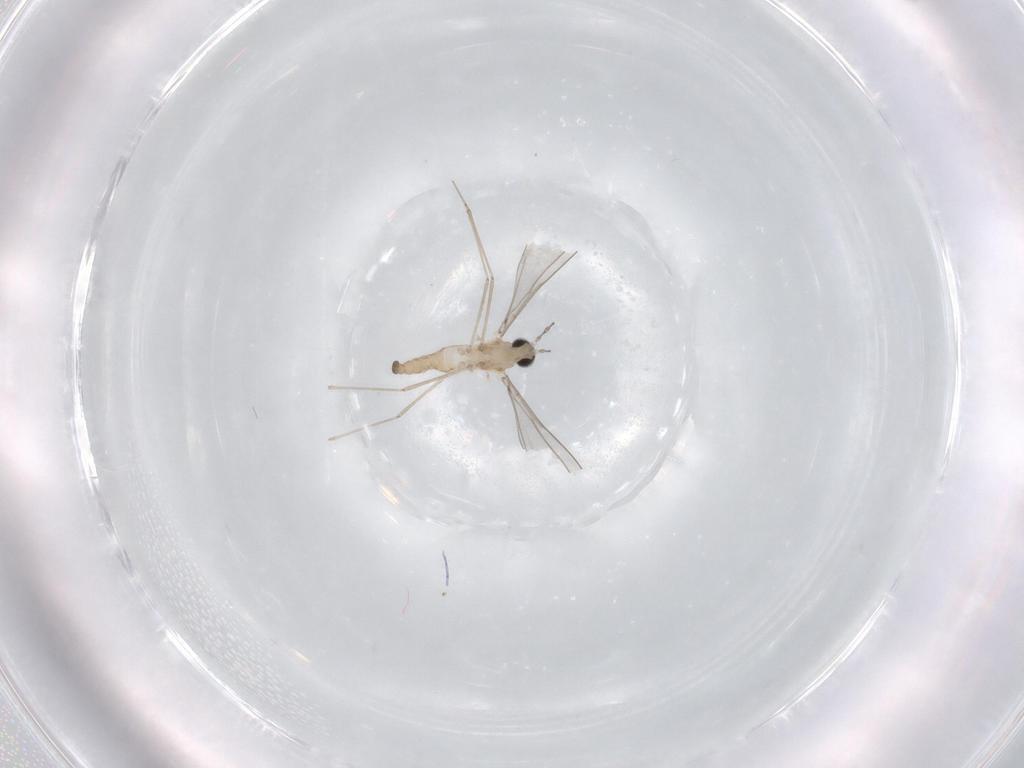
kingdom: Animalia
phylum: Arthropoda
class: Insecta
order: Diptera
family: Cecidomyiidae
